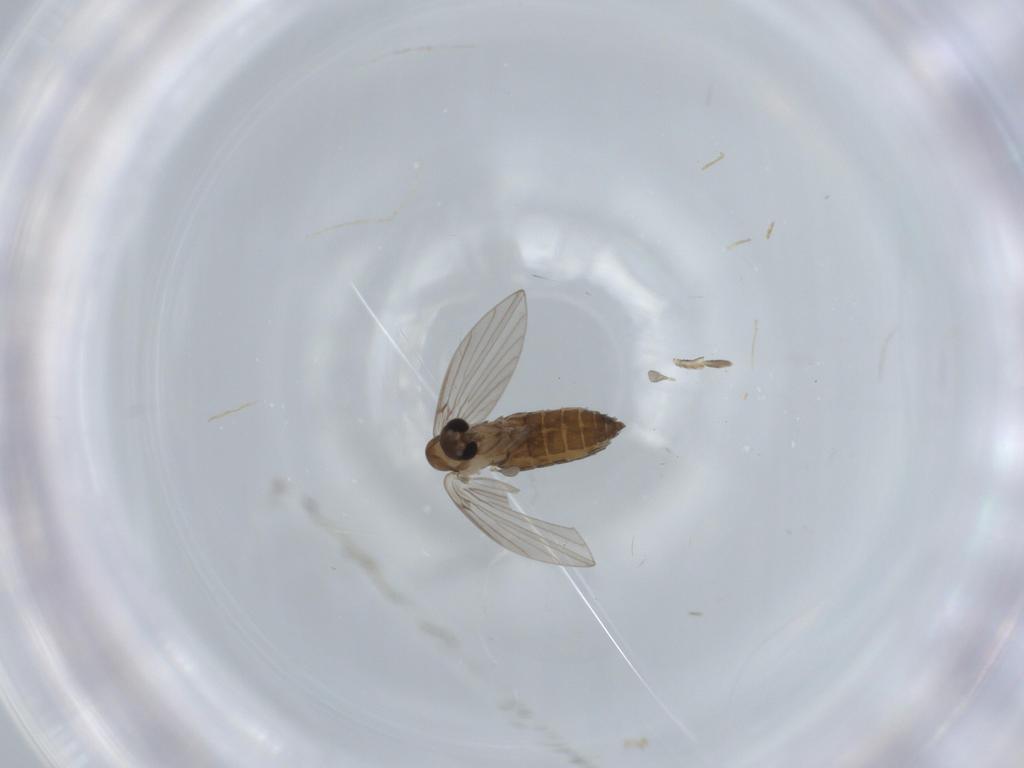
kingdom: Animalia
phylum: Arthropoda
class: Insecta
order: Diptera
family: Psychodidae
